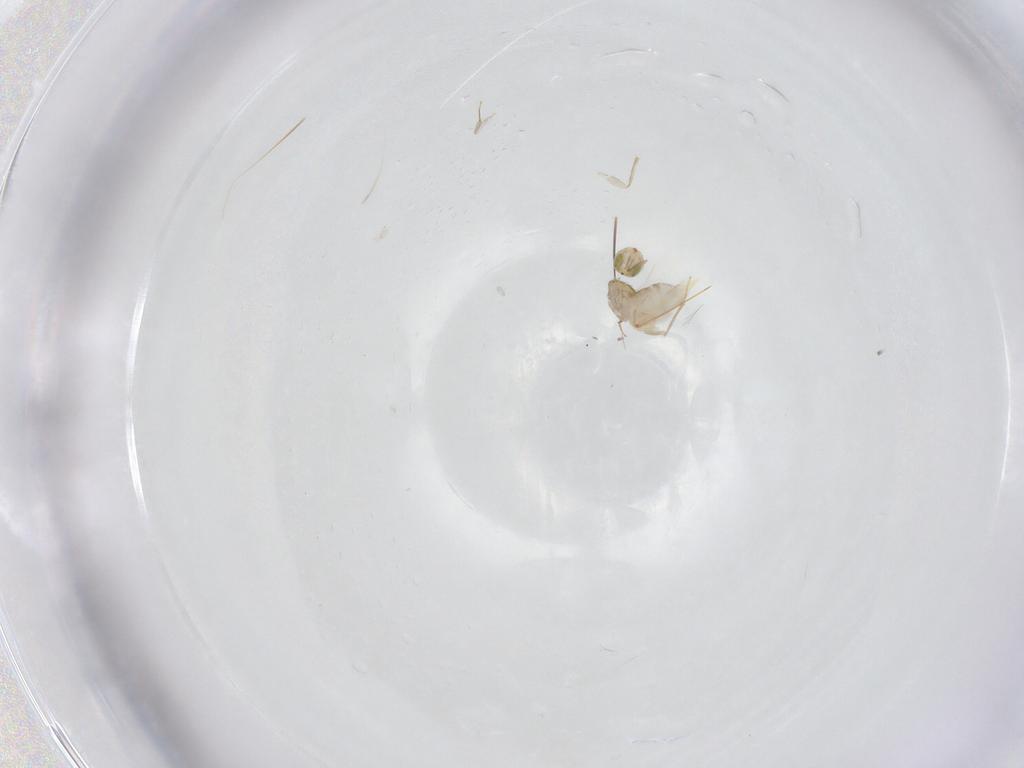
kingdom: Animalia
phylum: Arthropoda
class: Insecta
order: Hymenoptera
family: Aphelinidae
